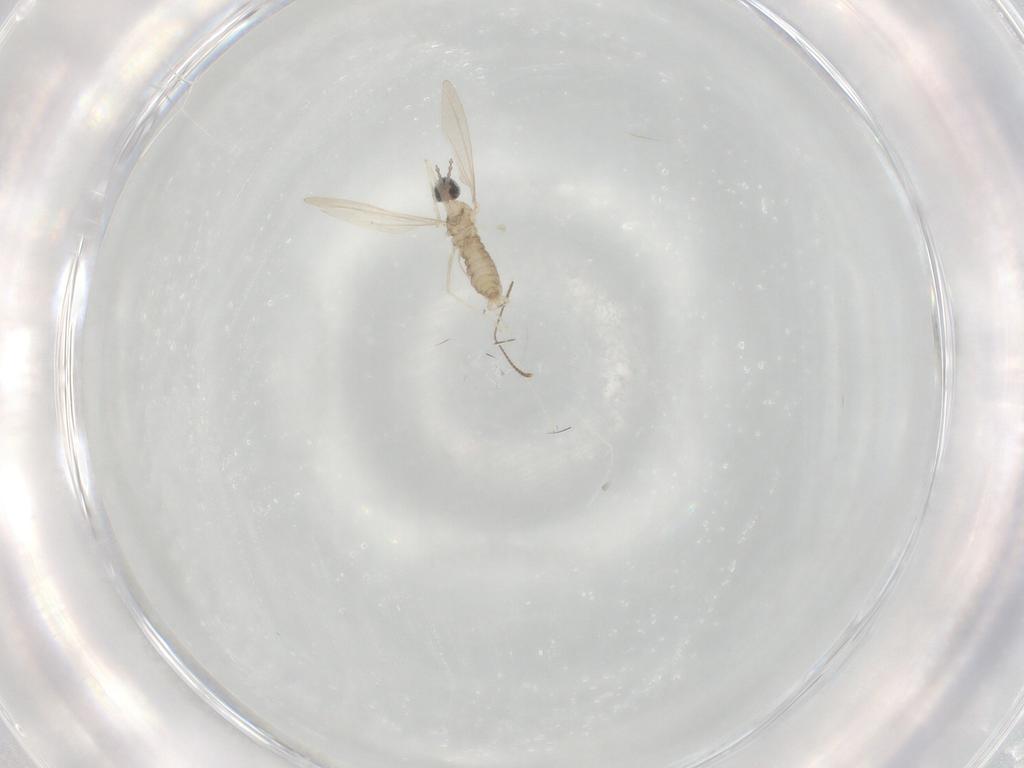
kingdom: Animalia
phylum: Arthropoda
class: Insecta
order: Diptera
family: Cecidomyiidae
